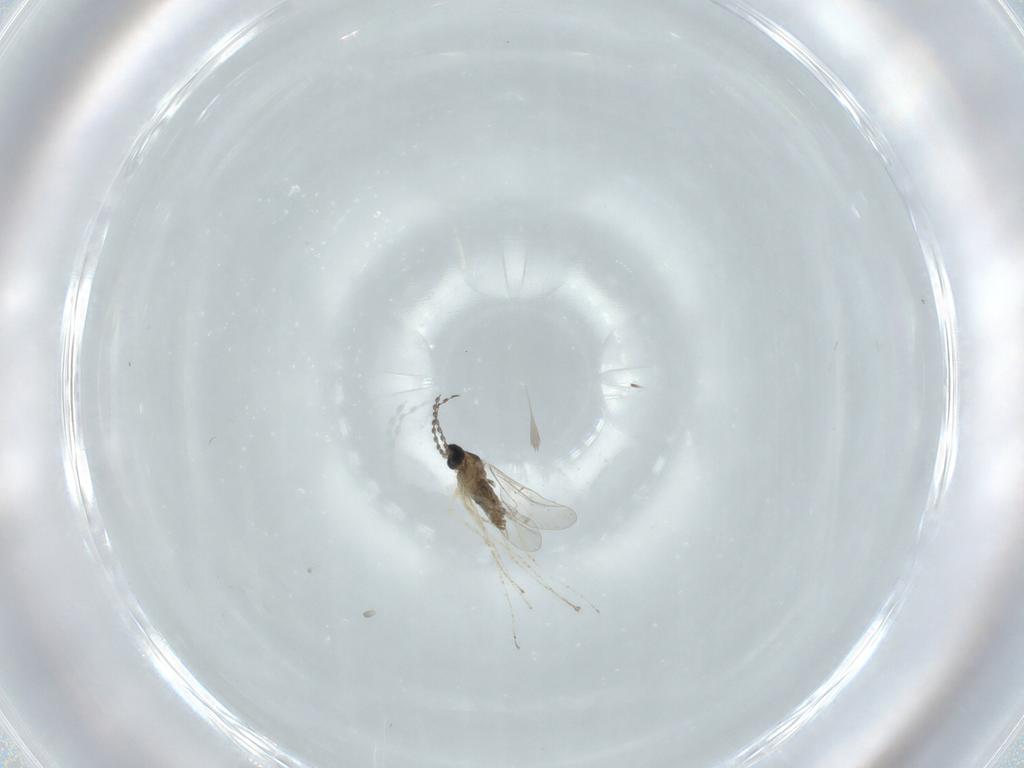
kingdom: Animalia
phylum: Arthropoda
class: Insecta
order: Diptera
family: Cecidomyiidae
